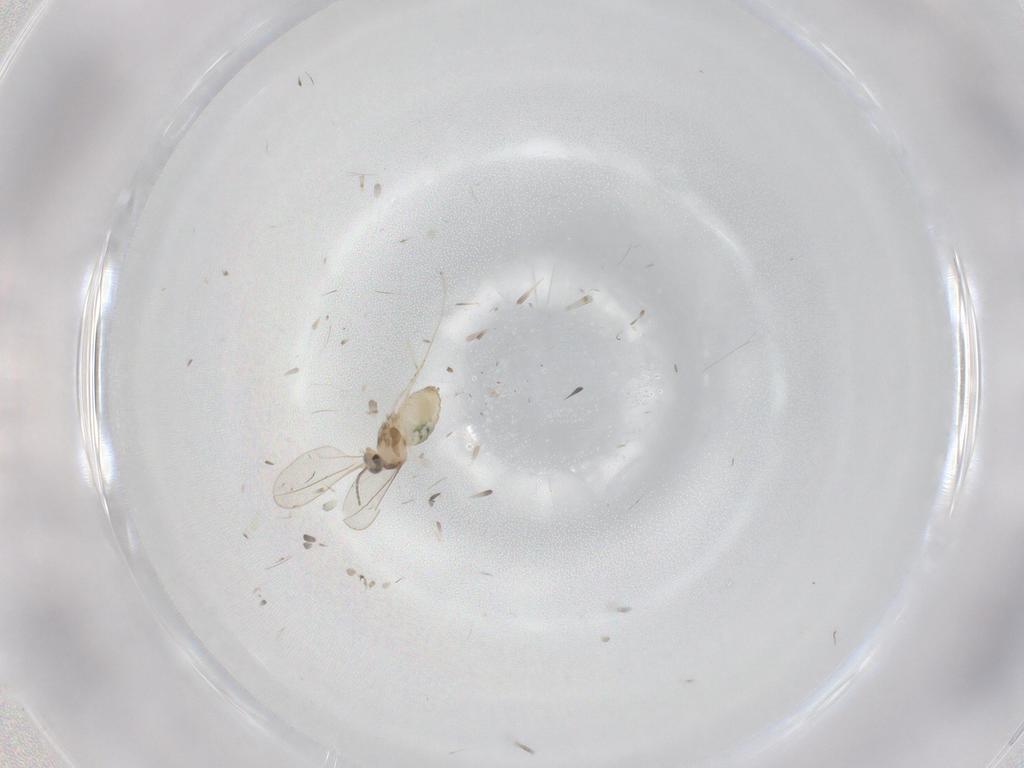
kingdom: Animalia
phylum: Arthropoda
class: Insecta
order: Diptera
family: Cecidomyiidae
